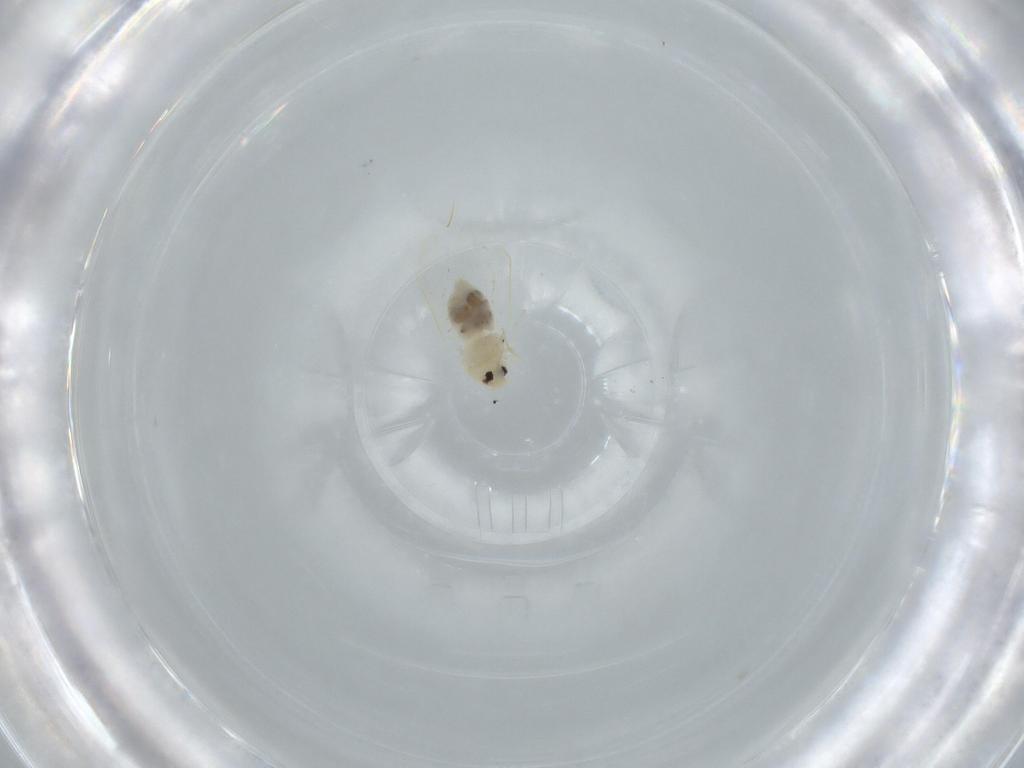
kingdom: Animalia
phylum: Arthropoda
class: Insecta
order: Hemiptera
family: Aleyrodidae
